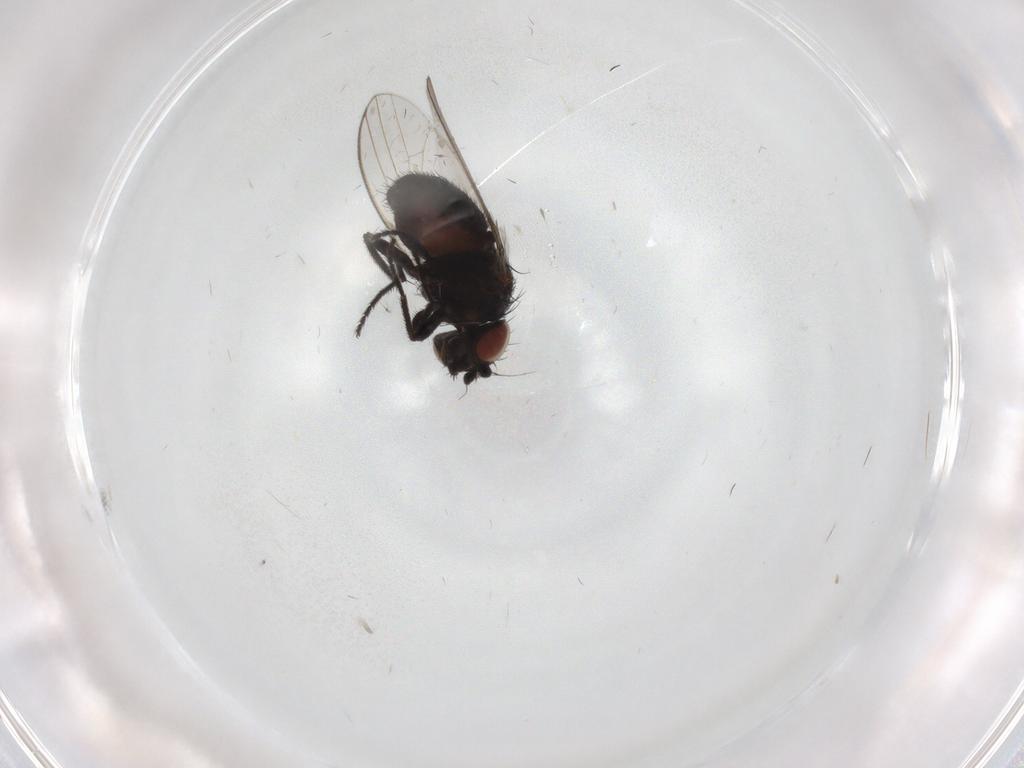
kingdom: Animalia
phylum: Arthropoda
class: Insecta
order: Diptera
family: Milichiidae
